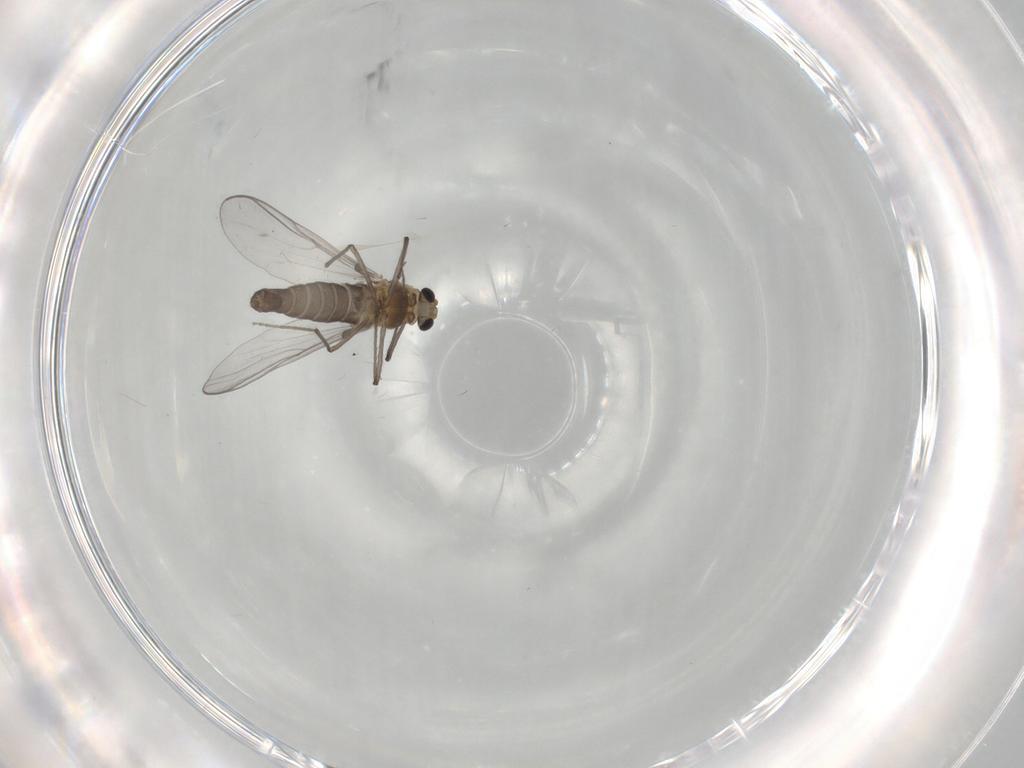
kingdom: Animalia
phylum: Arthropoda
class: Insecta
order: Diptera
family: Chironomidae
